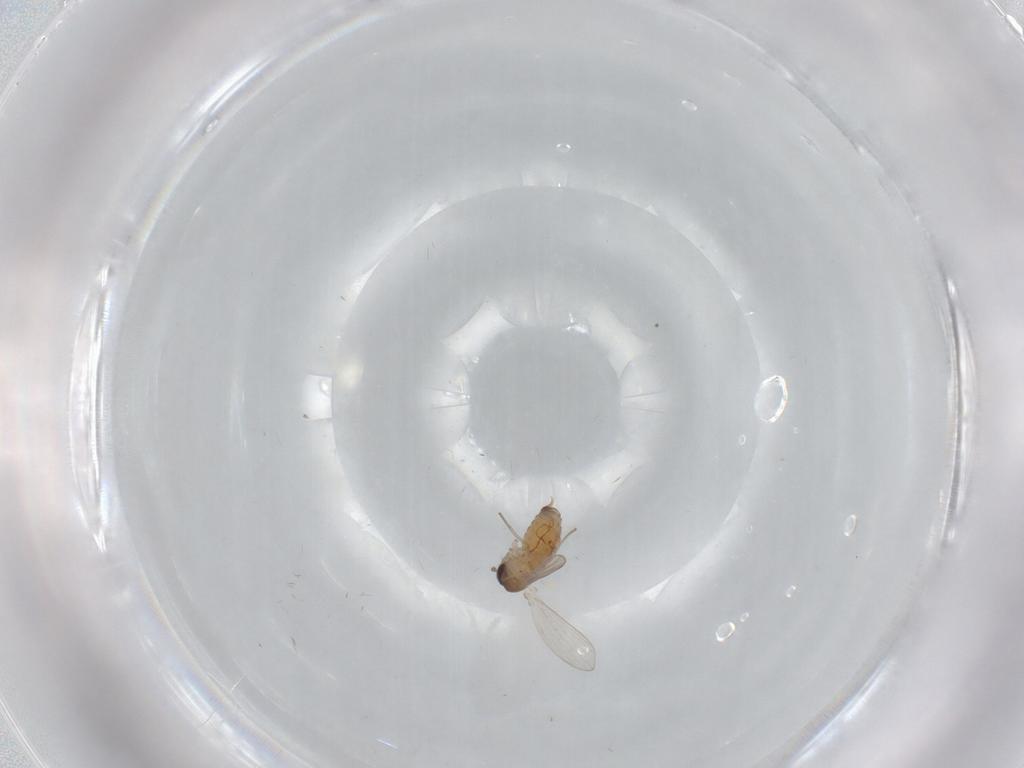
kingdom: Animalia
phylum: Arthropoda
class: Insecta
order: Diptera
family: Psychodidae
